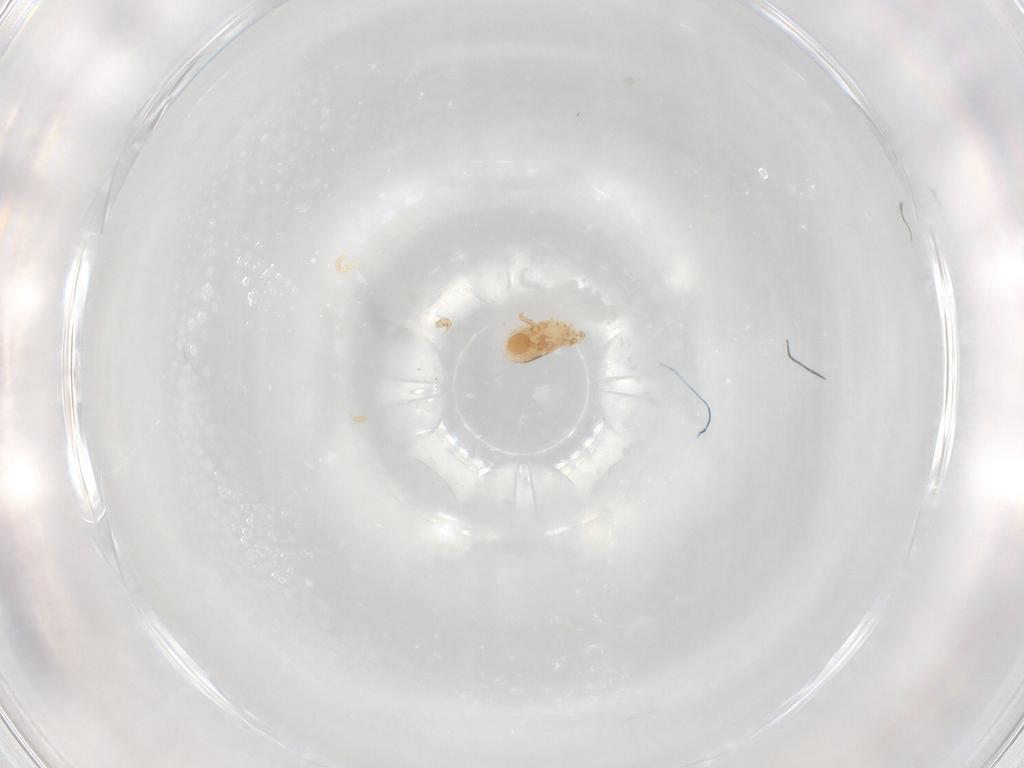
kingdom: Animalia
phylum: Arthropoda
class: Arachnida
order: Mesostigmata
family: Parasitidae
